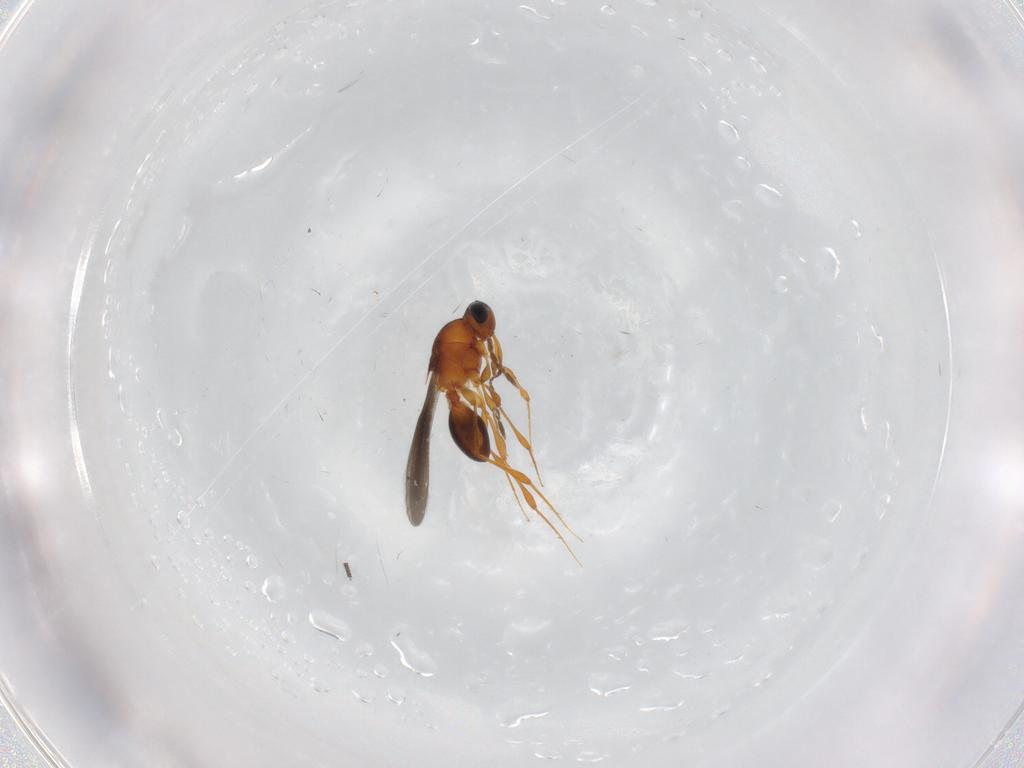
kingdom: Animalia
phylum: Arthropoda
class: Insecta
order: Hymenoptera
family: Platygastridae
